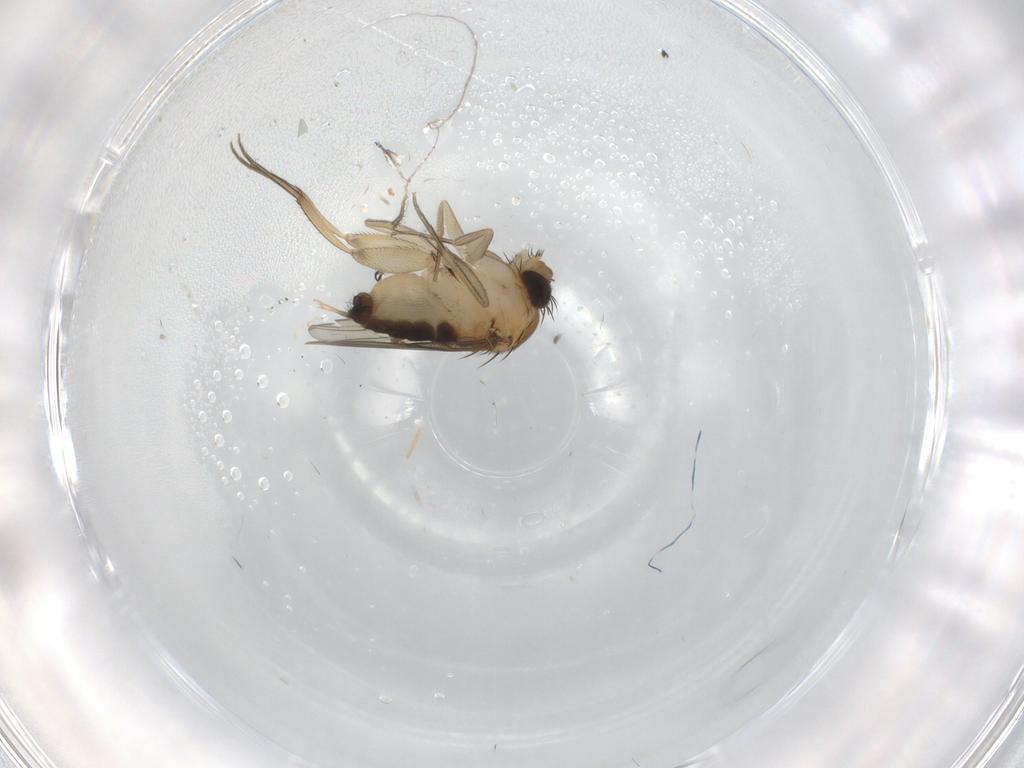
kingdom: Animalia
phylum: Arthropoda
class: Insecta
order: Diptera
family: Phoridae
